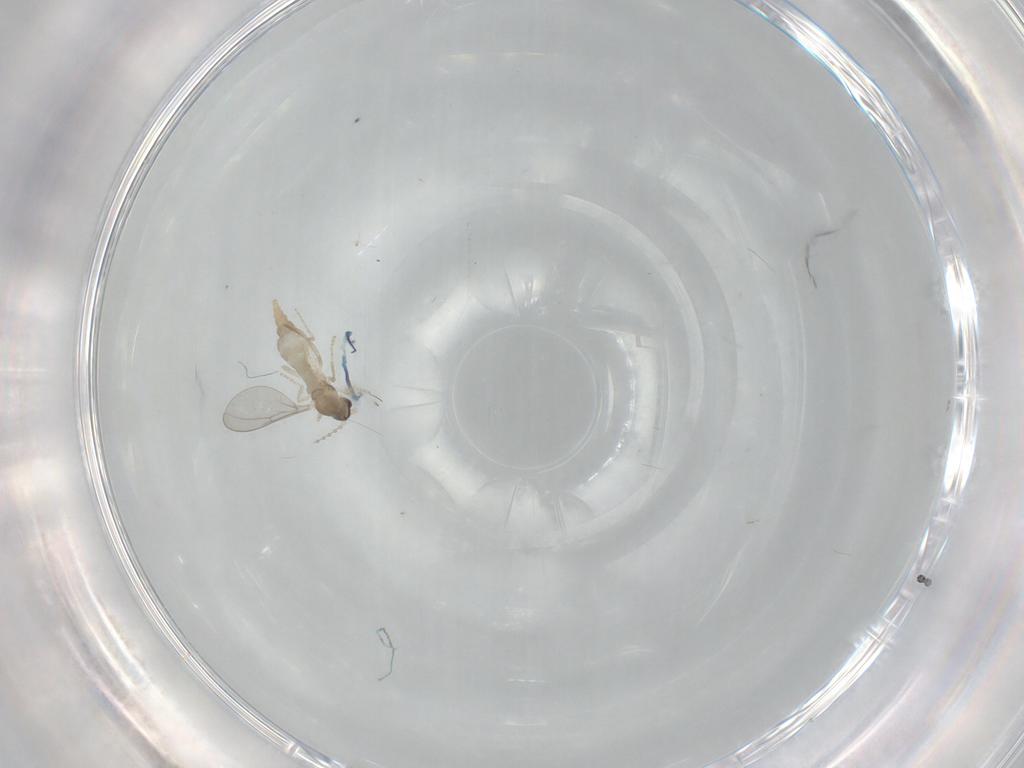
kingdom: Animalia
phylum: Arthropoda
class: Insecta
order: Diptera
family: Cecidomyiidae
